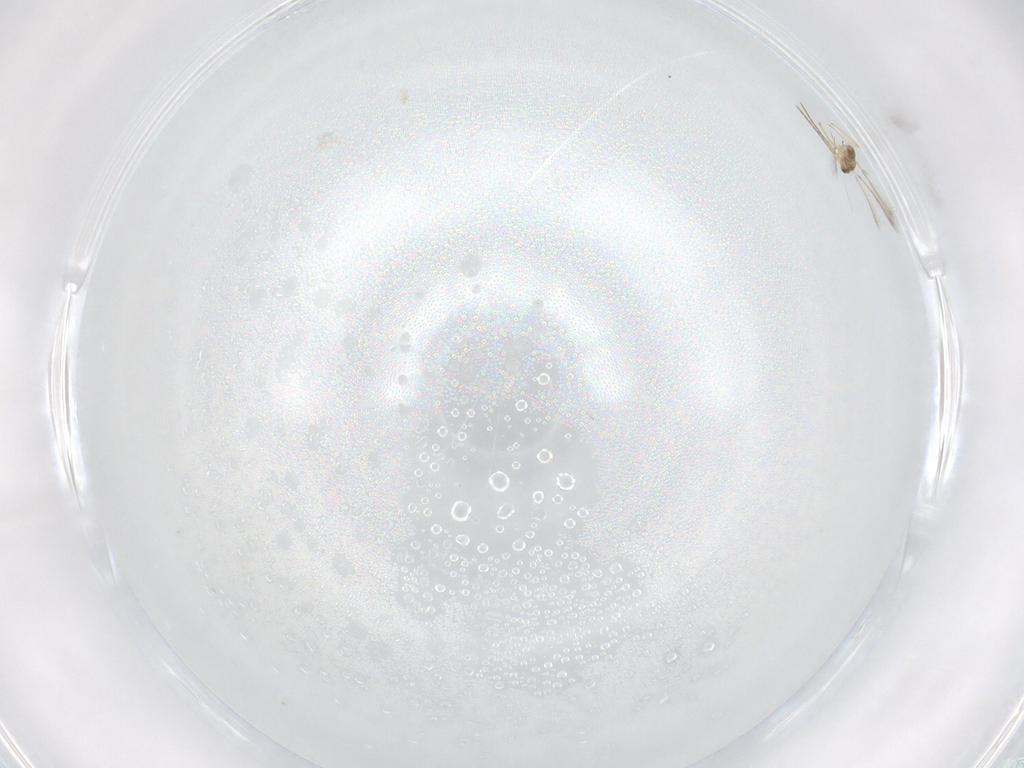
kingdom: Animalia
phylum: Arthropoda
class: Insecta
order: Hymenoptera
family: Mymaridae
